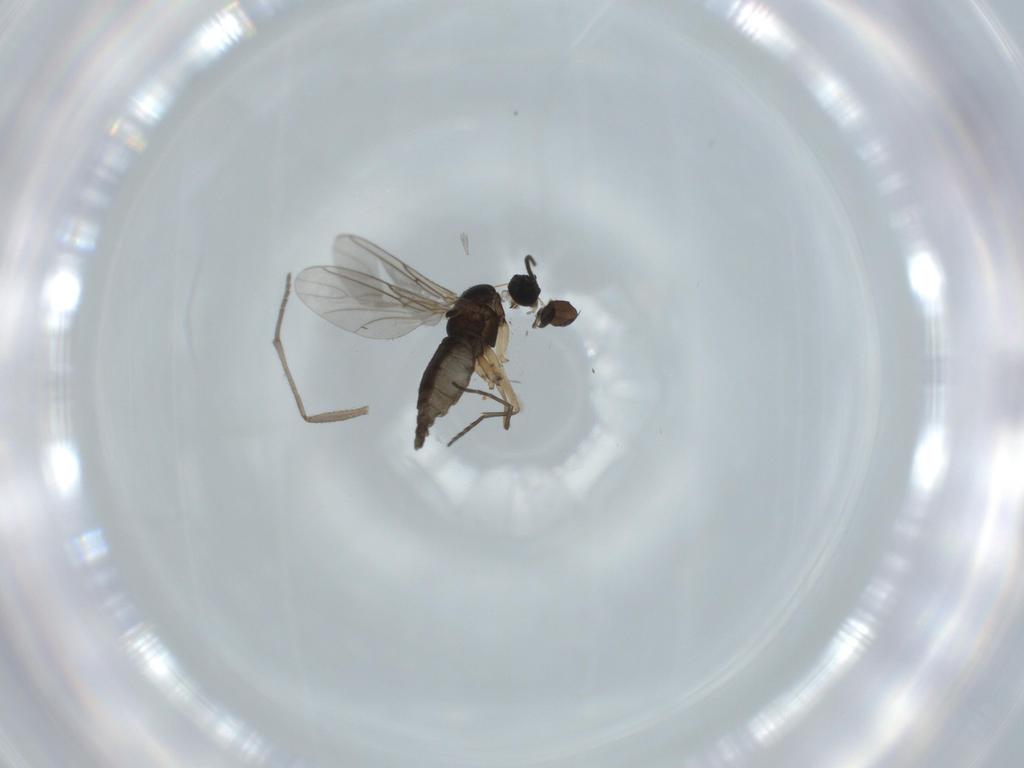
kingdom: Animalia
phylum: Arthropoda
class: Insecta
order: Diptera
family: Sciaridae
